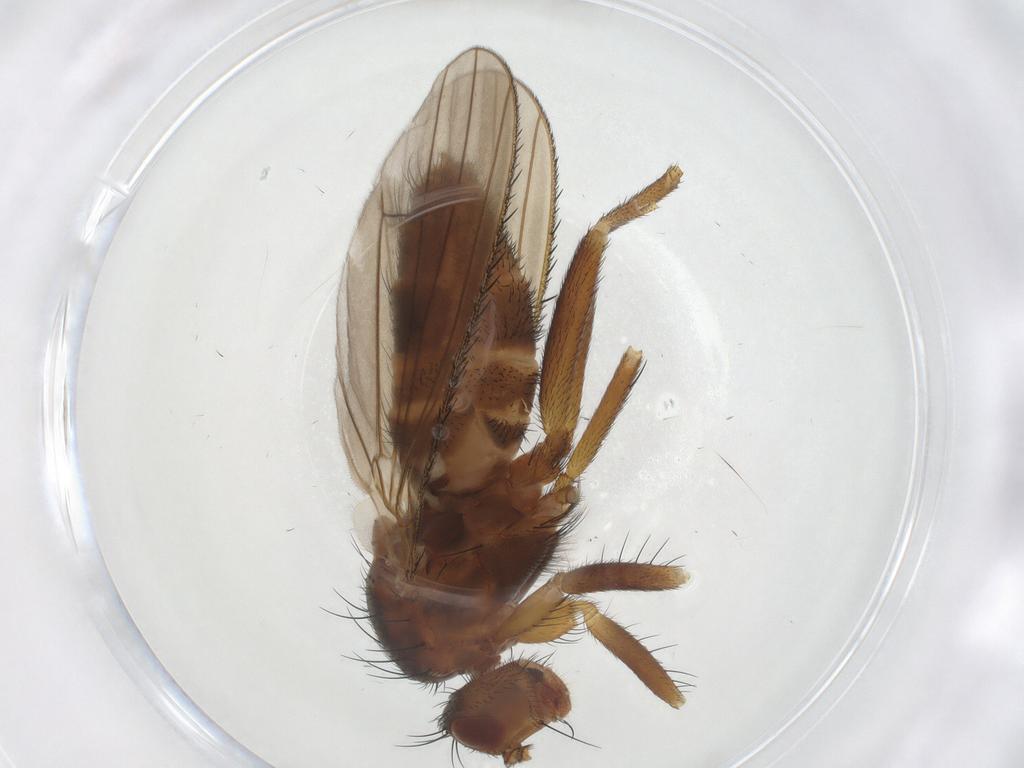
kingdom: Animalia
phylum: Arthropoda
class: Insecta
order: Diptera
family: Heleomyzidae
